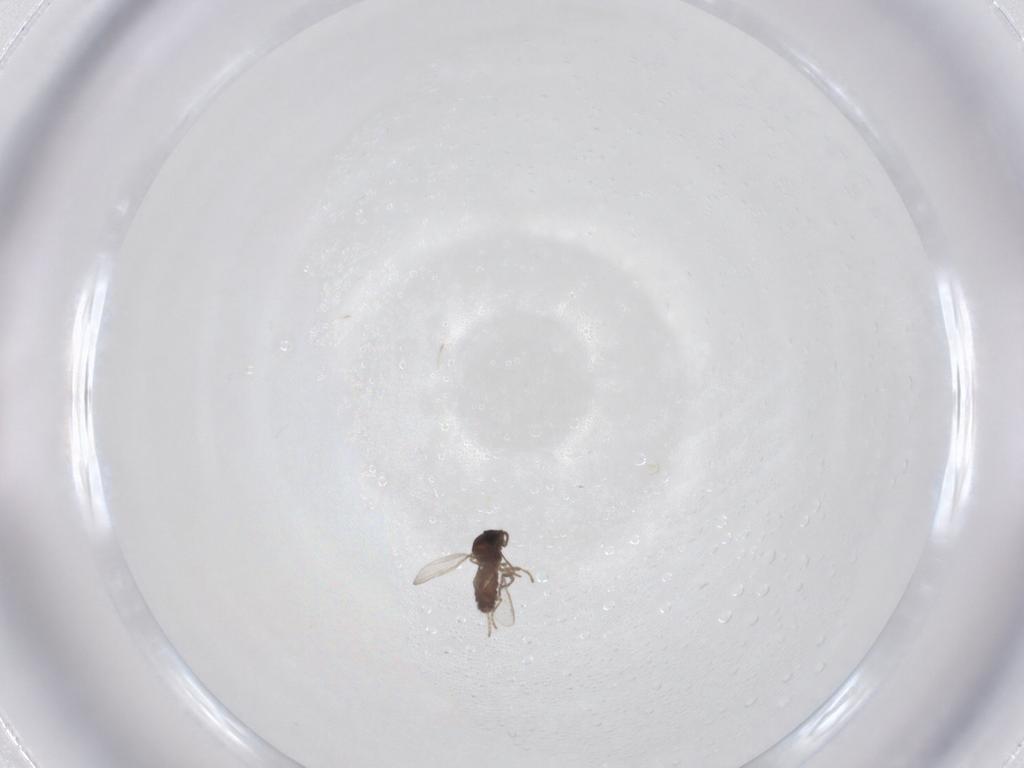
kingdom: Animalia
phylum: Arthropoda
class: Insecta
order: Diptera
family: Ceratopogonidae
